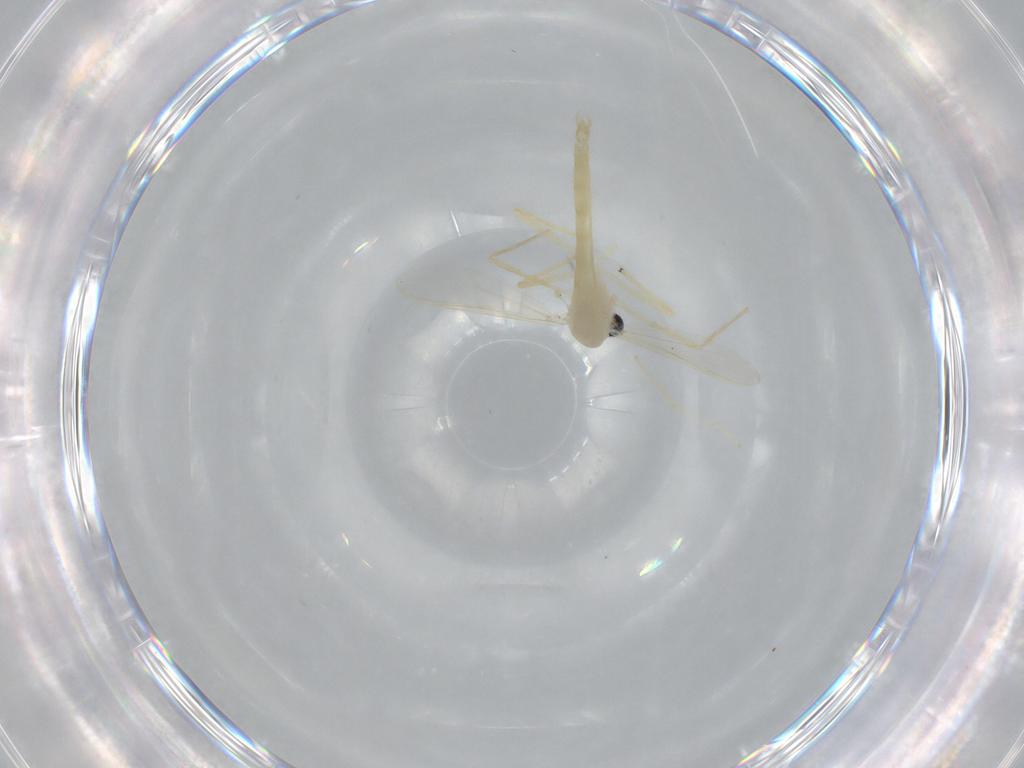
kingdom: Animalia
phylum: Arthropoda
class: Insecta
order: Diptera
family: Chironomidae
